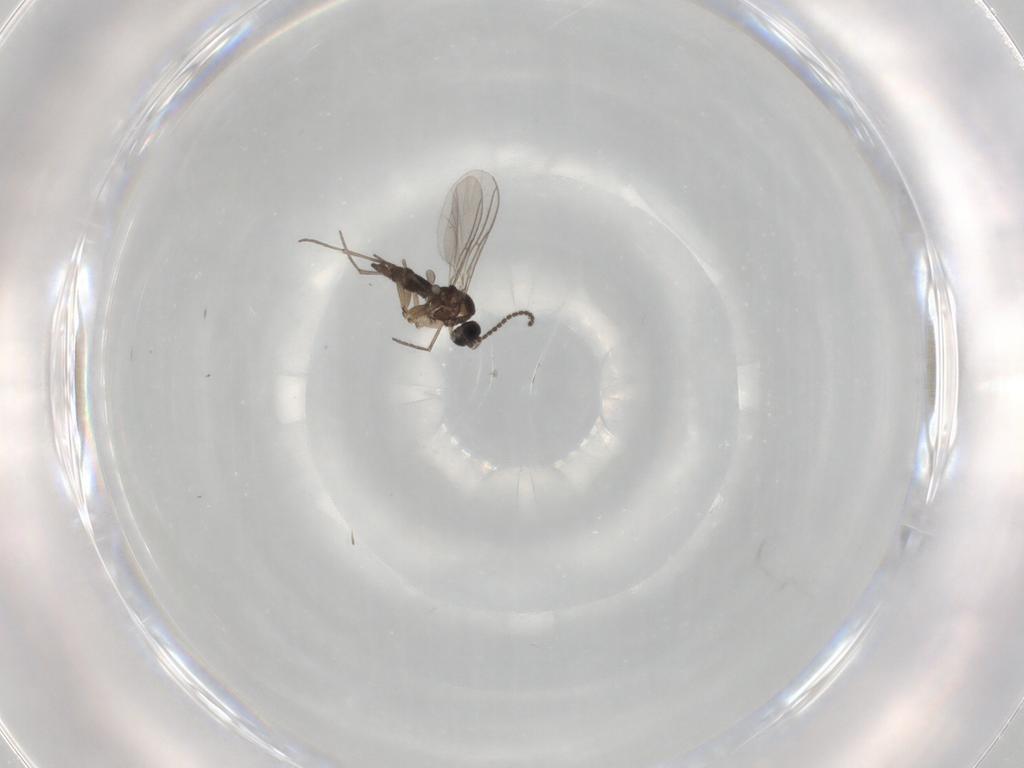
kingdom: Animalia
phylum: Arthropoda
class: Insecta
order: Diptera
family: Sciaridae
